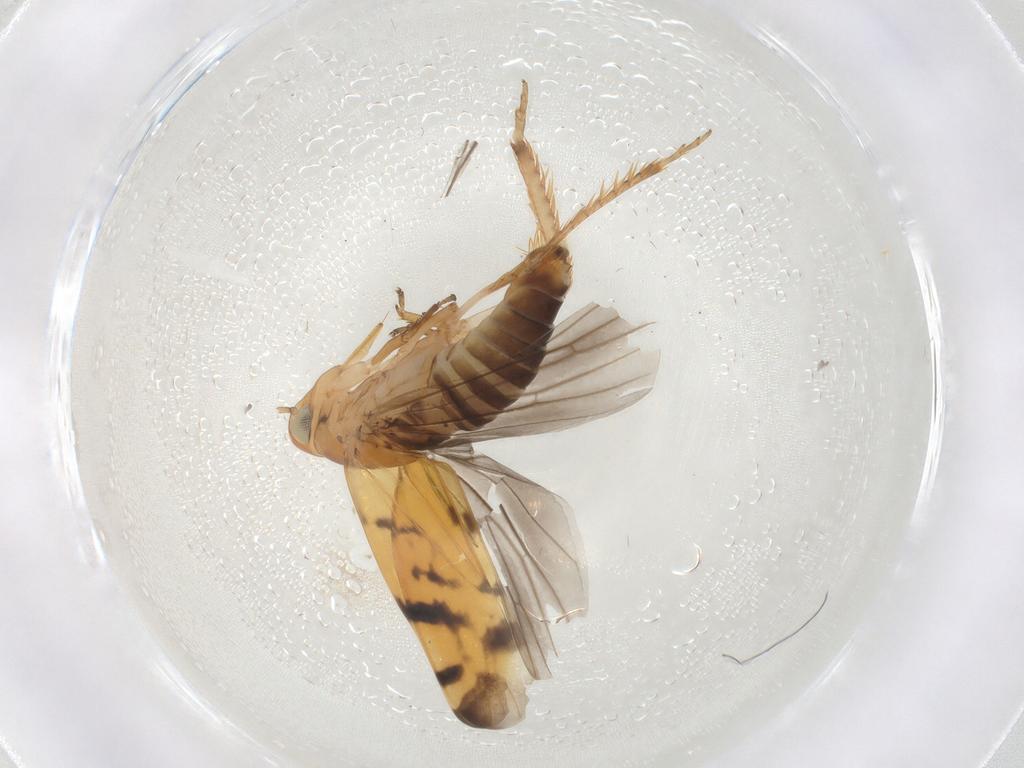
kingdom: Animalia
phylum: Arthropoda
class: Insecta
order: Hemiptera
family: Cicadellidae
